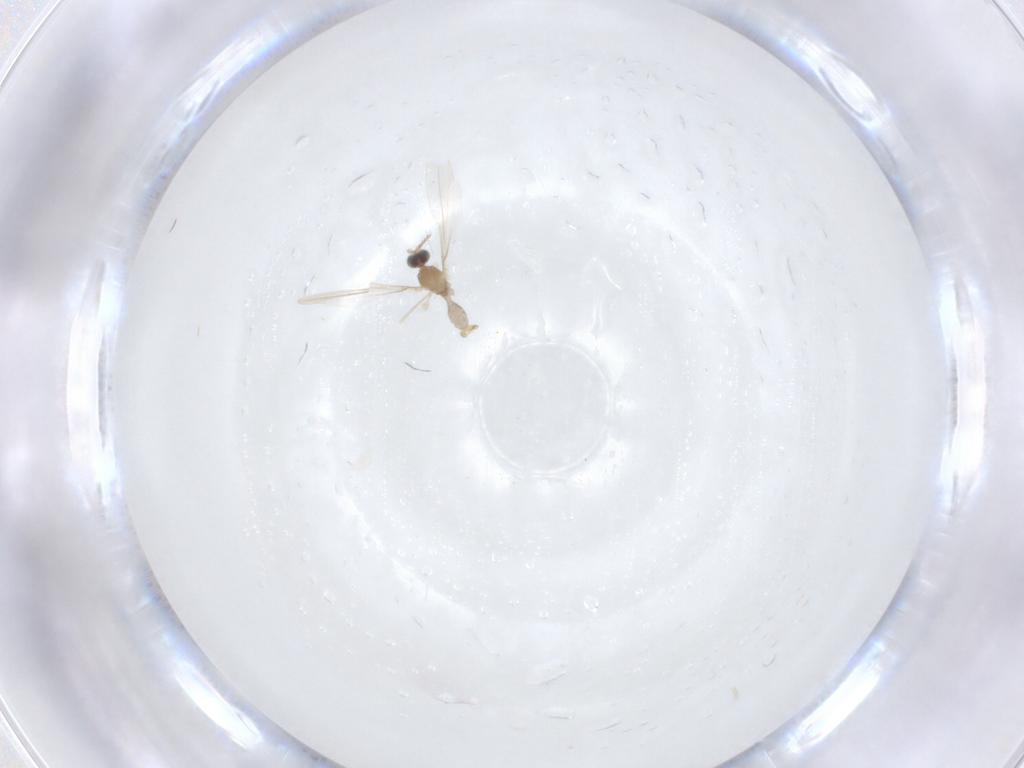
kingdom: Animalia
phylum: Arthropoda
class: Insecta
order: Diptera
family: Cecidomyiidae
